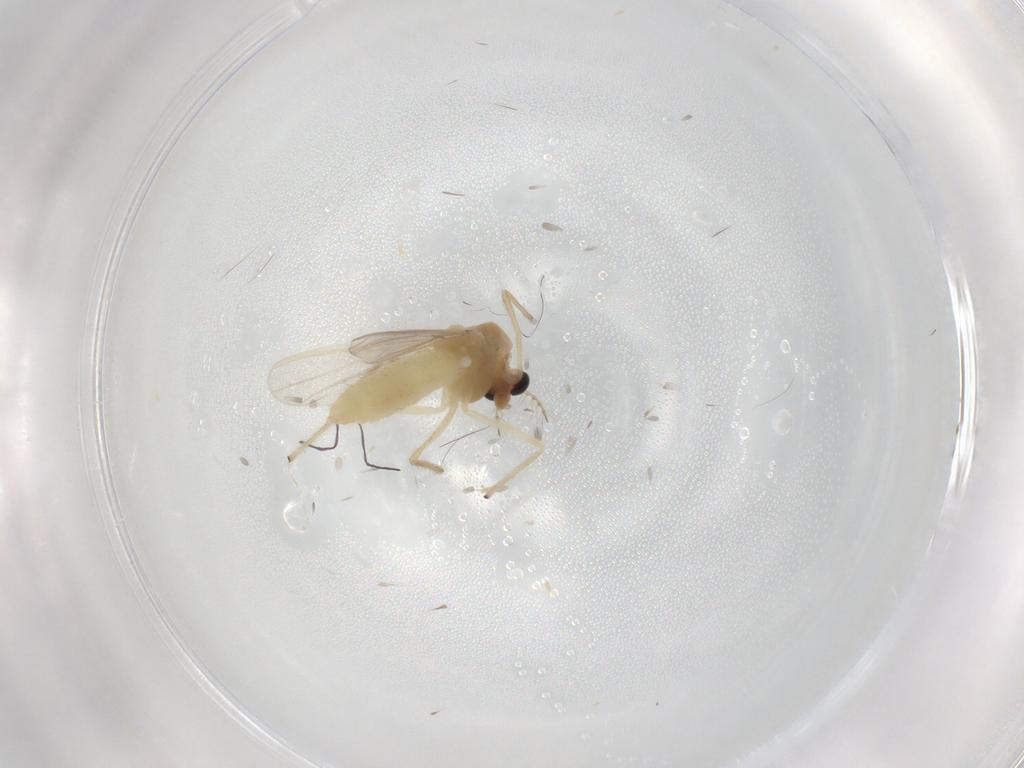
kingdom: Animalia
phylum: Arthropoda
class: Insecta
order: Diptera
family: Chironomidae
